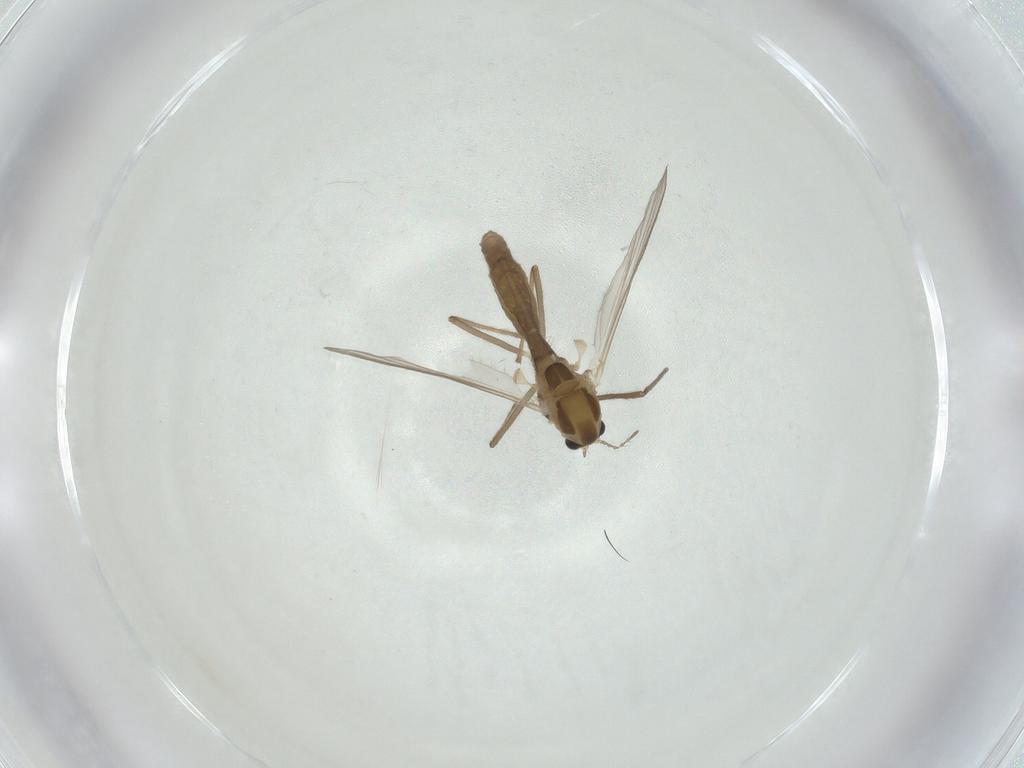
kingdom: Animalia
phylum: Arthropoda
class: Insecta
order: Diptera
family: Chironomidae
